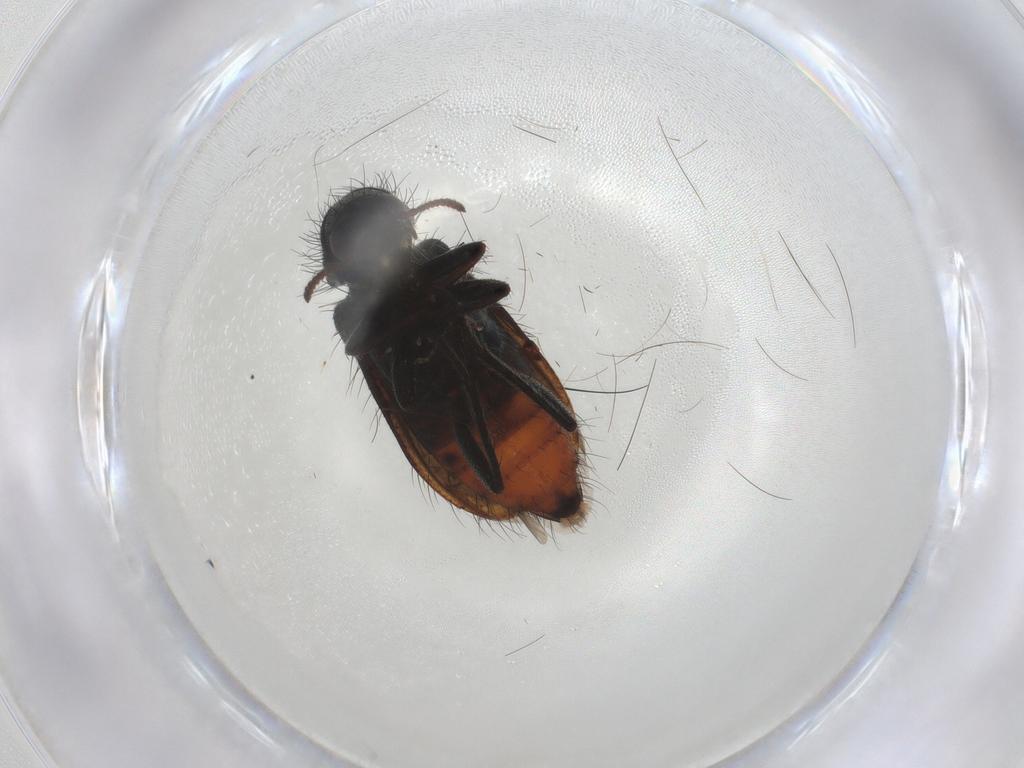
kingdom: Animalia
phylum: Arthropoda
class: Insecta
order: Coleoptera
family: Melyridae
